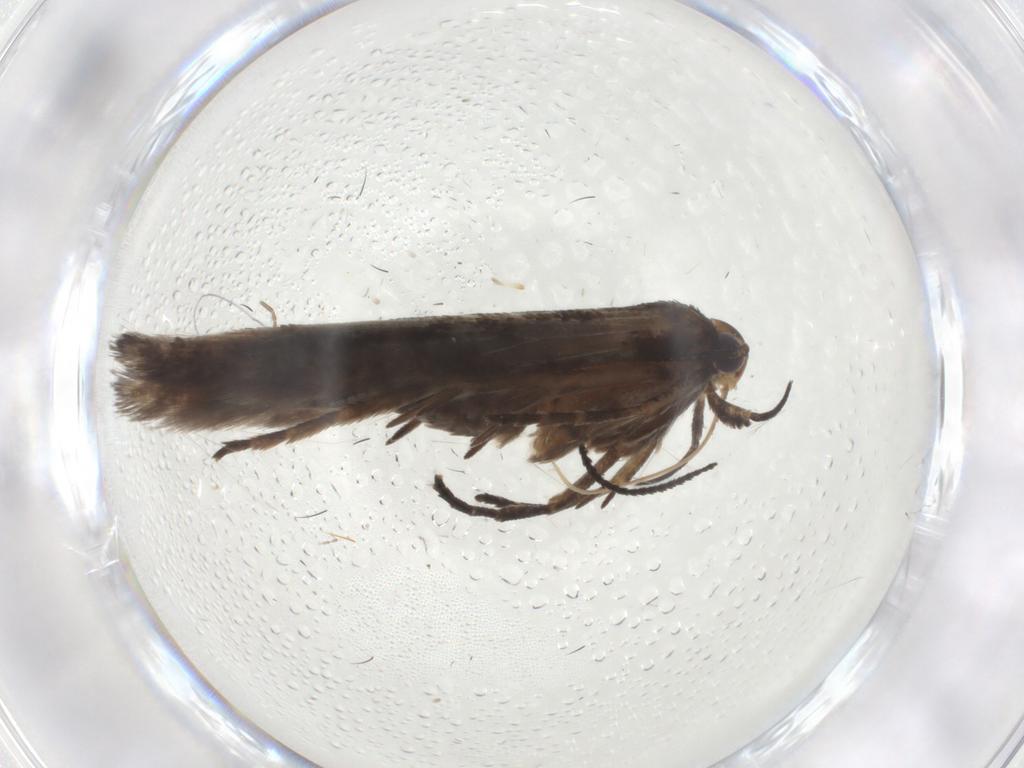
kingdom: Animalia
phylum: Arthropoda
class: Insecta
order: Lepidoptera
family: Gelechiidae
